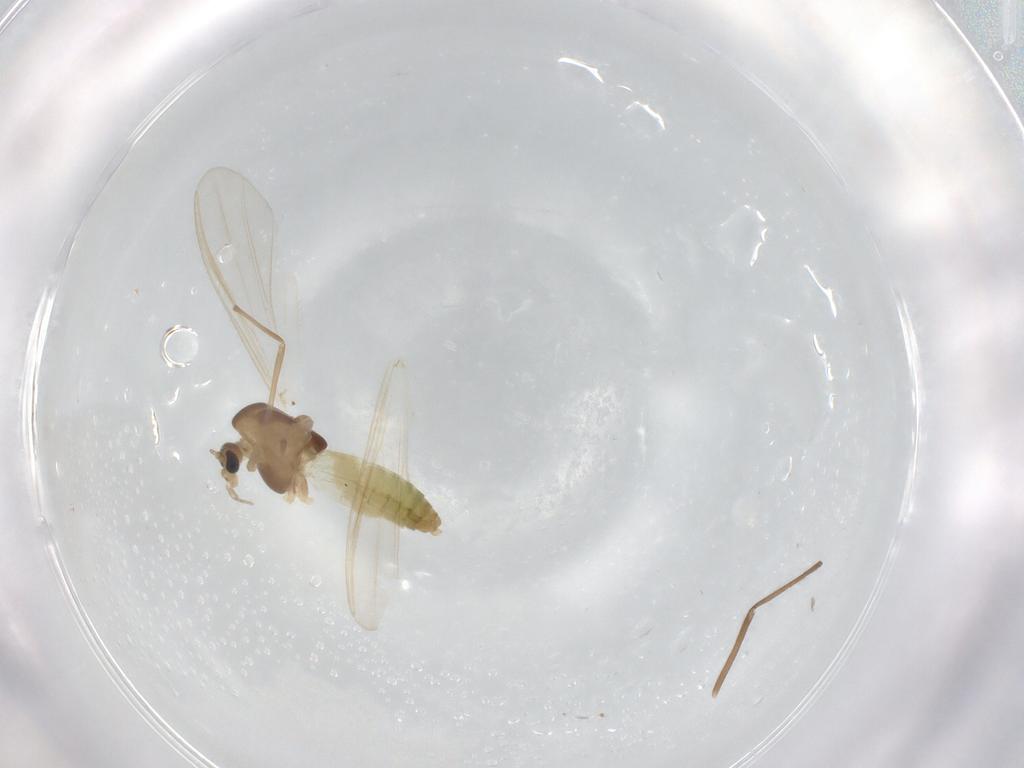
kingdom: Animalia
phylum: Arthropoda
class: Insecta
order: Diptera
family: Chironomidae
